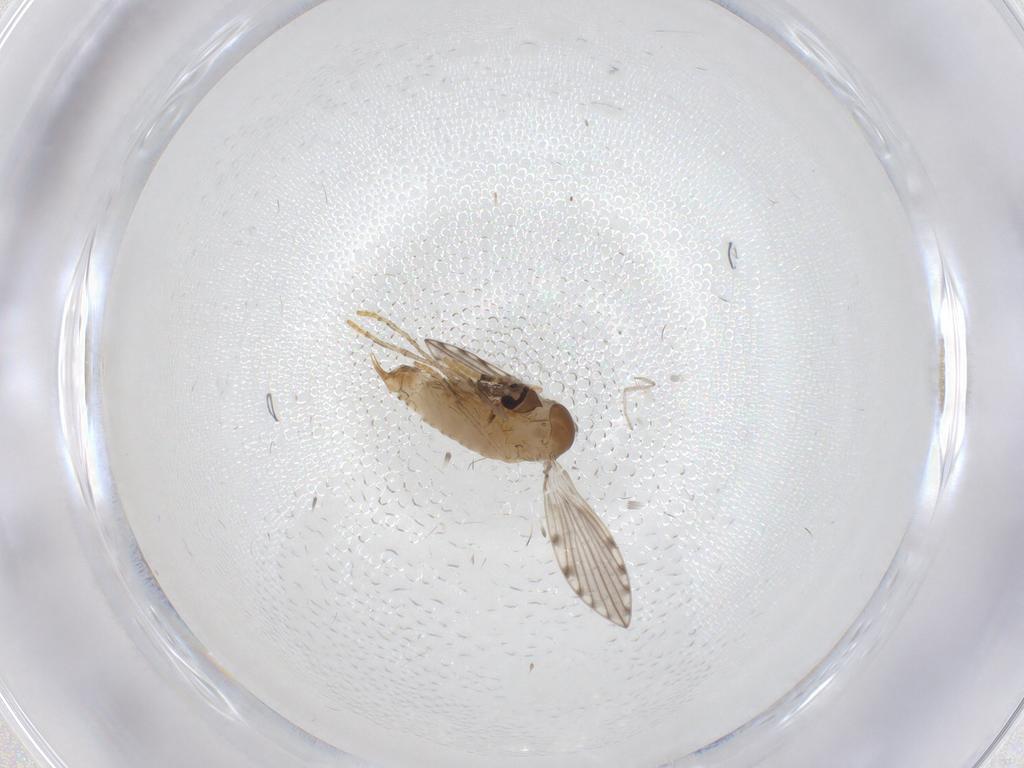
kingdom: Animalia
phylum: Arthropoda
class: Insecta
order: Diptera
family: Psychodidae
